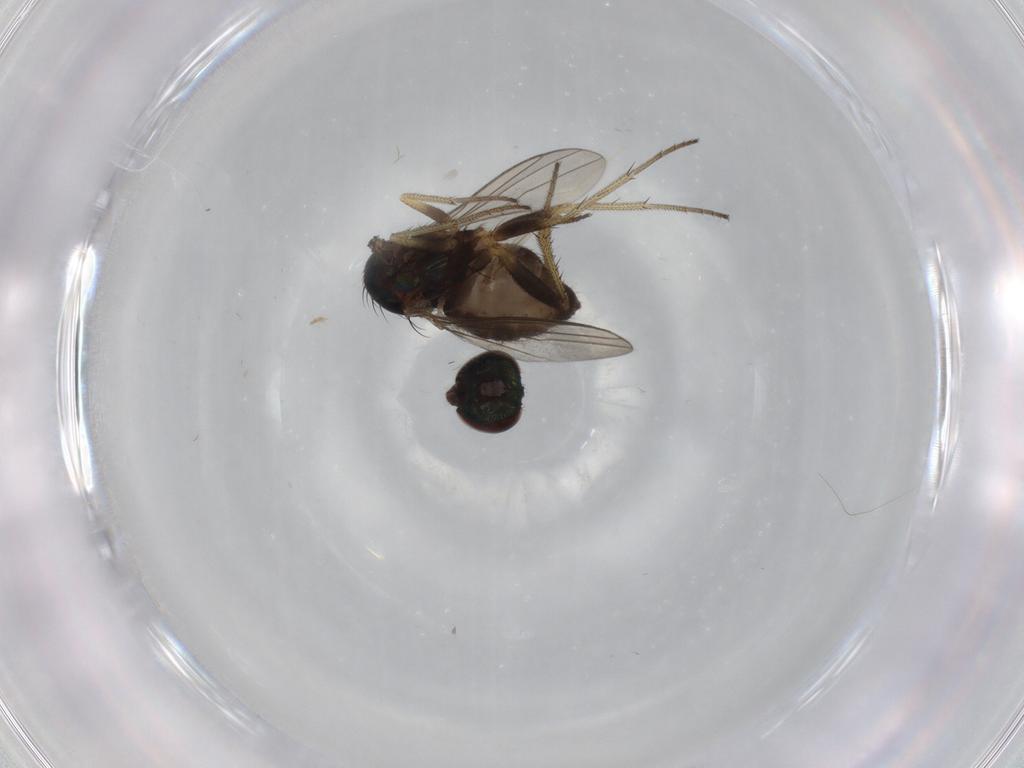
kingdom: Animalia
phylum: Arthropoda
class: Insecta
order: Diptera
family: Dolichopodidae
